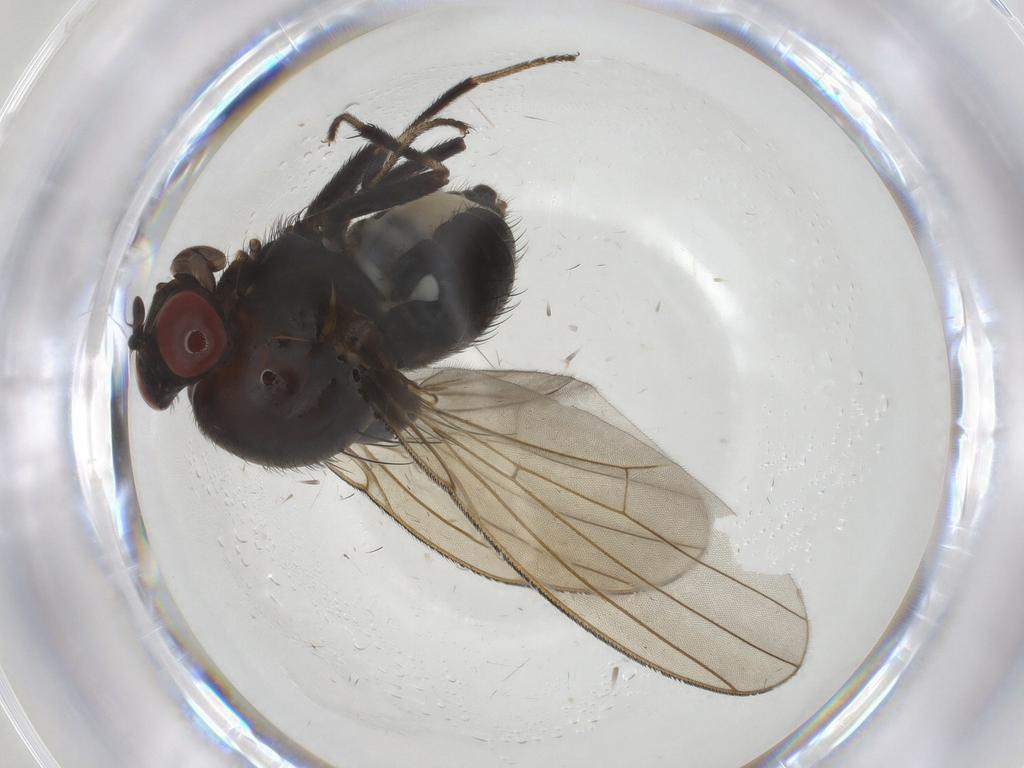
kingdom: Animalia
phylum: Arthropoda
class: Insecta
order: Diptera
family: Lauxaniidae
